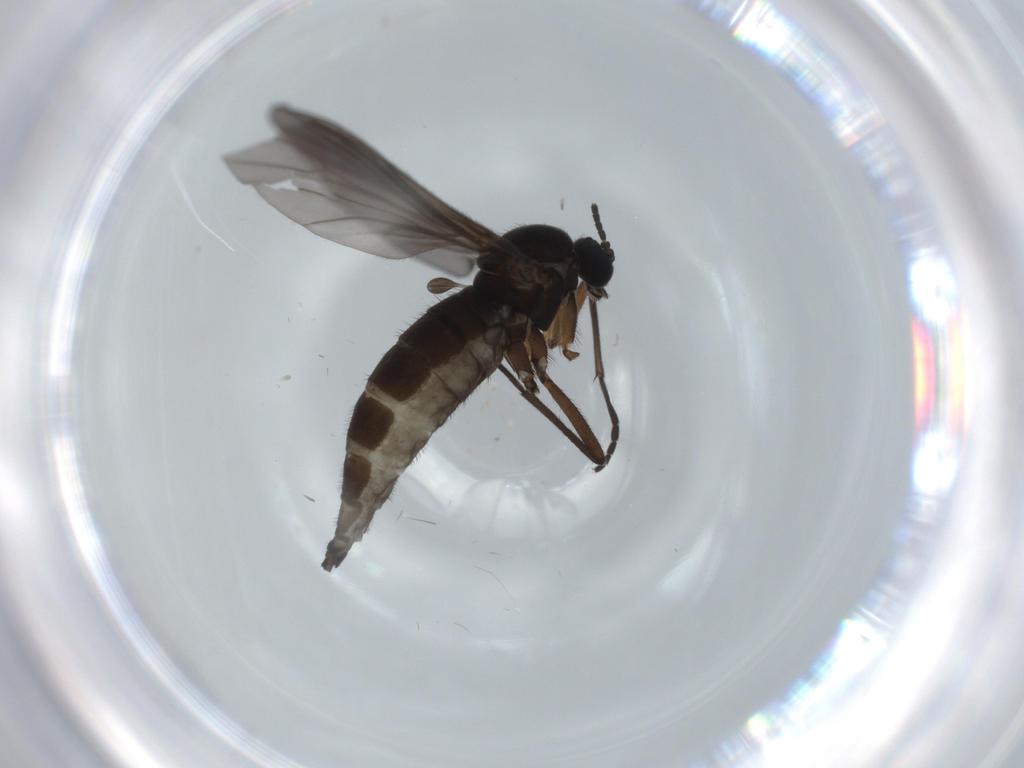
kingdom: Animalia
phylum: Arthropoda
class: Insecta
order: Diptera
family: Sciaridae
